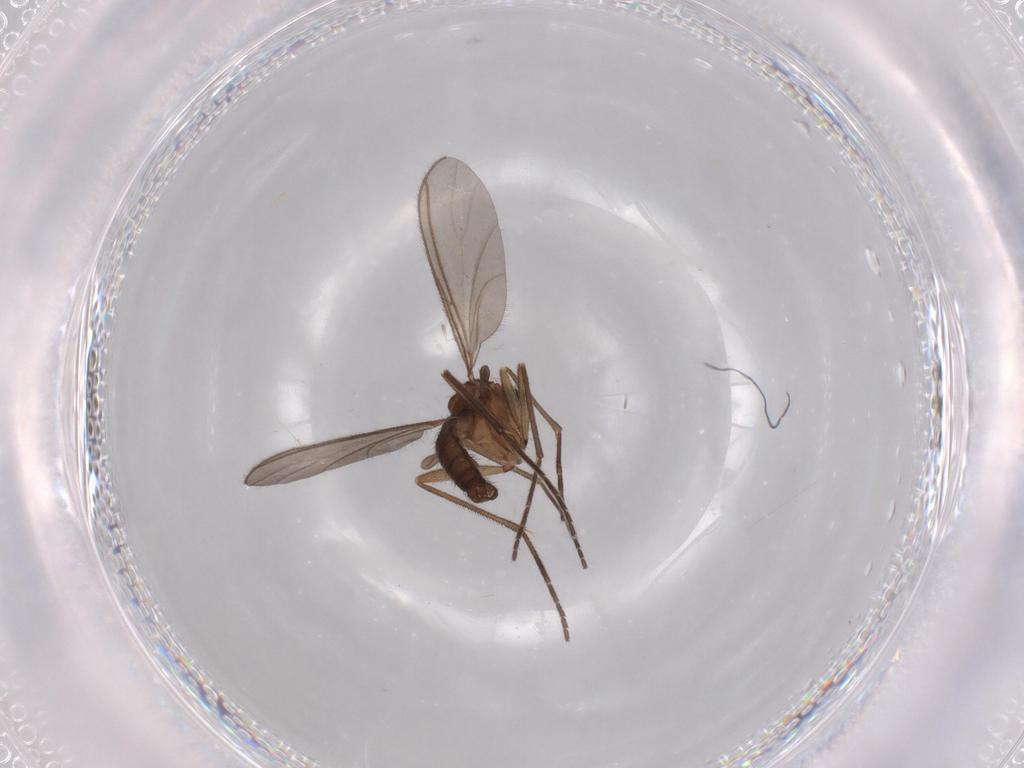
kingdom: Animalia
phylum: Arthropoda
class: Insecta
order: Diptera
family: Sciaridae
